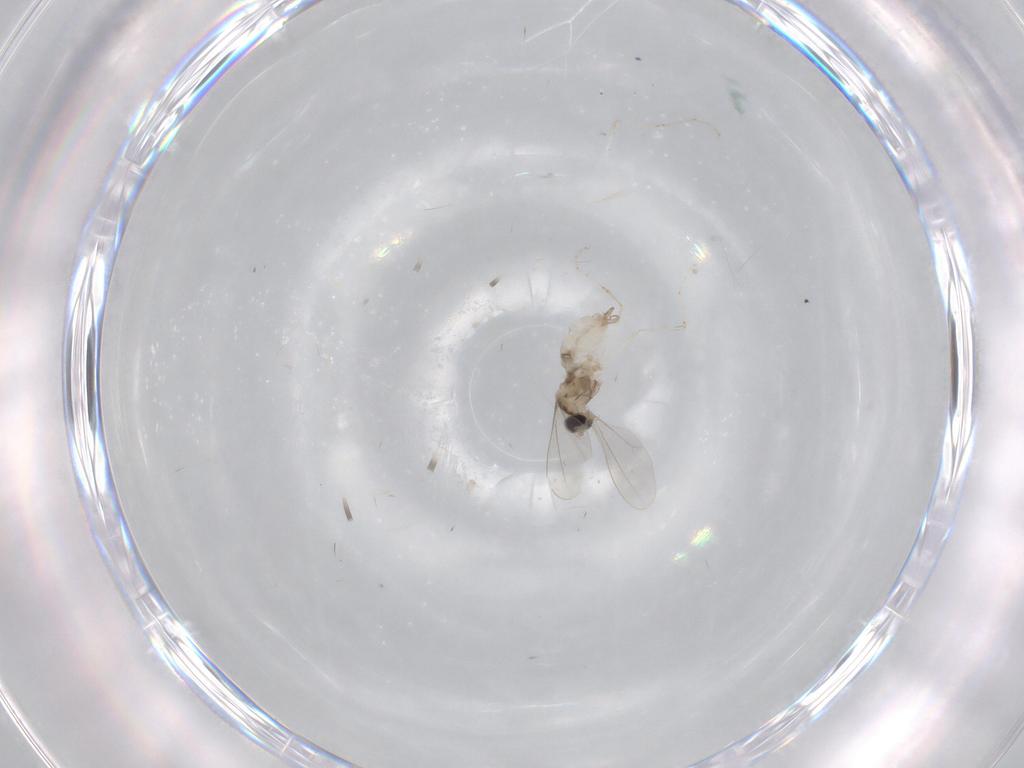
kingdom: Animalia
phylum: Arthropoda
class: Insecta
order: Diptera
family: Cecidomyiidae
